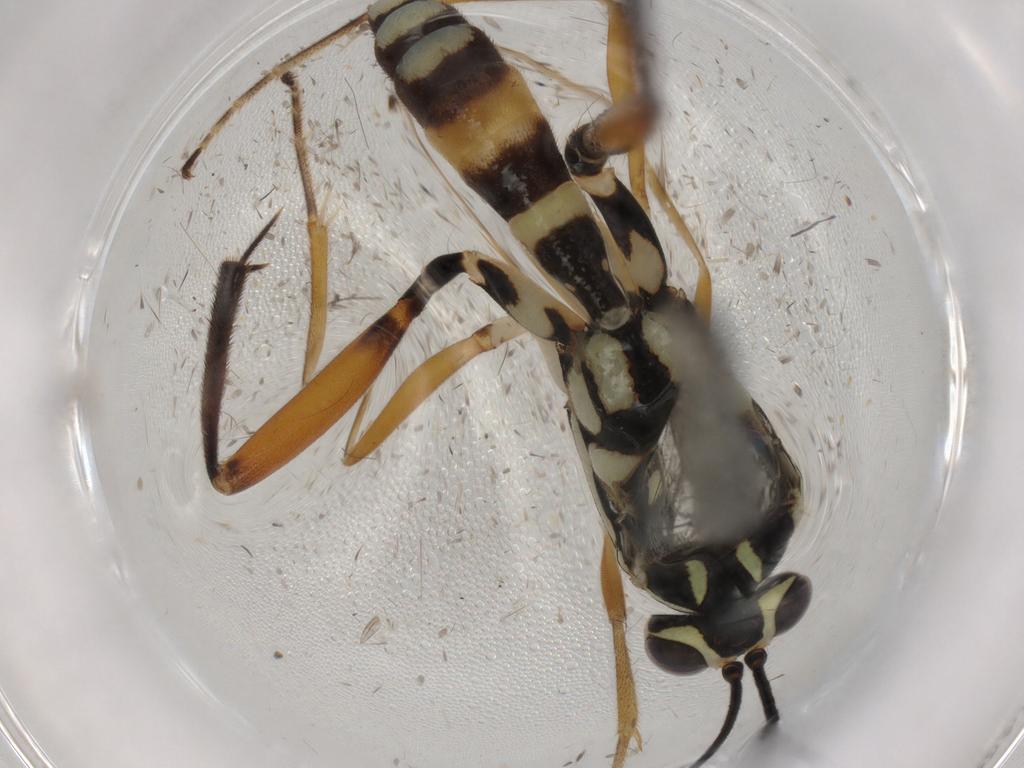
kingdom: Animalia
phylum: Arthropoda
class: Insecta
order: Hymenoptera
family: Ichneumonidae
